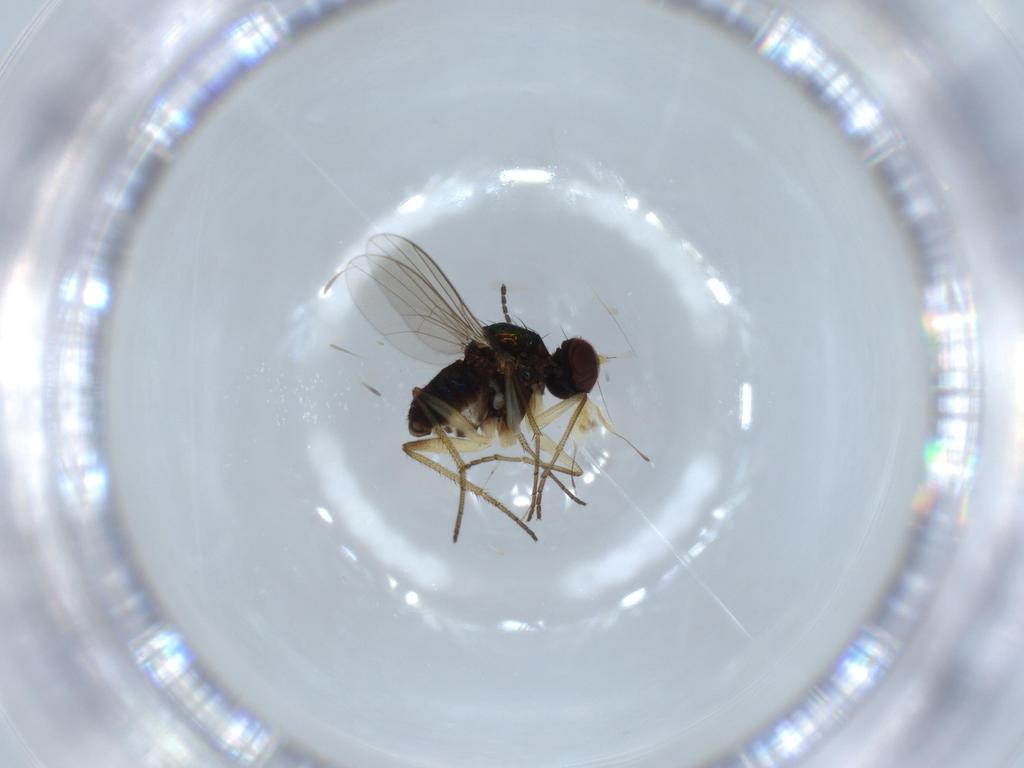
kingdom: Animalia
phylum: Arthropoda
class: Insecta
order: Diptera
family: Dolichopodidae
